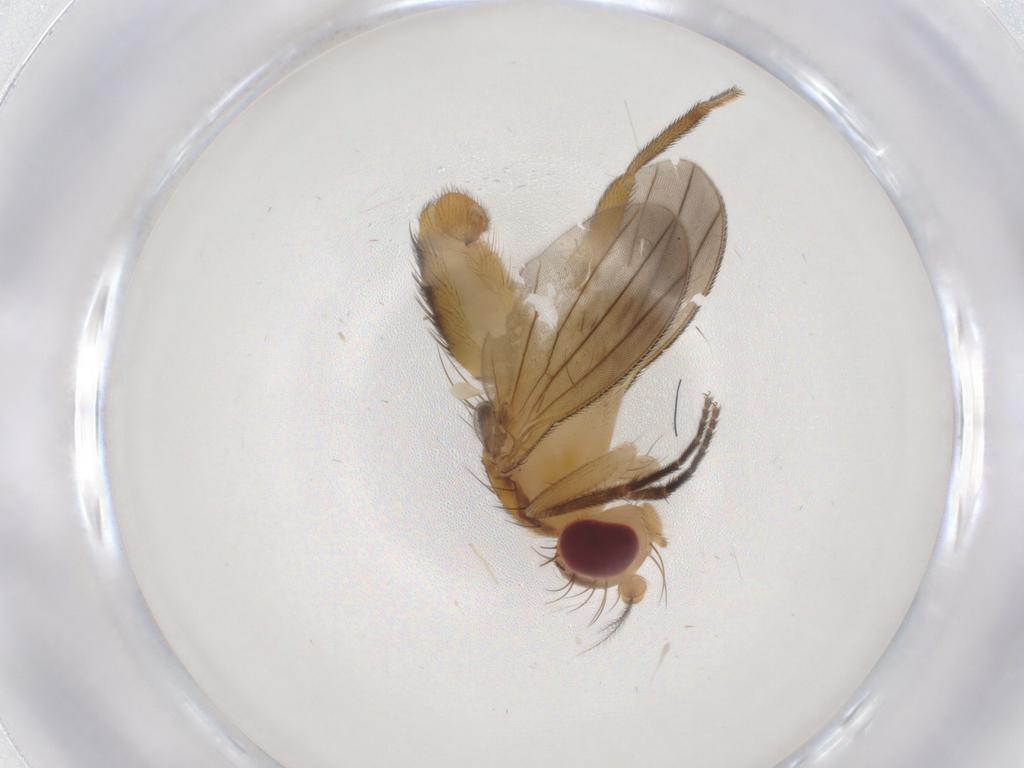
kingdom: Animalia
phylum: Arthropoda
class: Insecta
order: Diptera
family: Clusiidae
